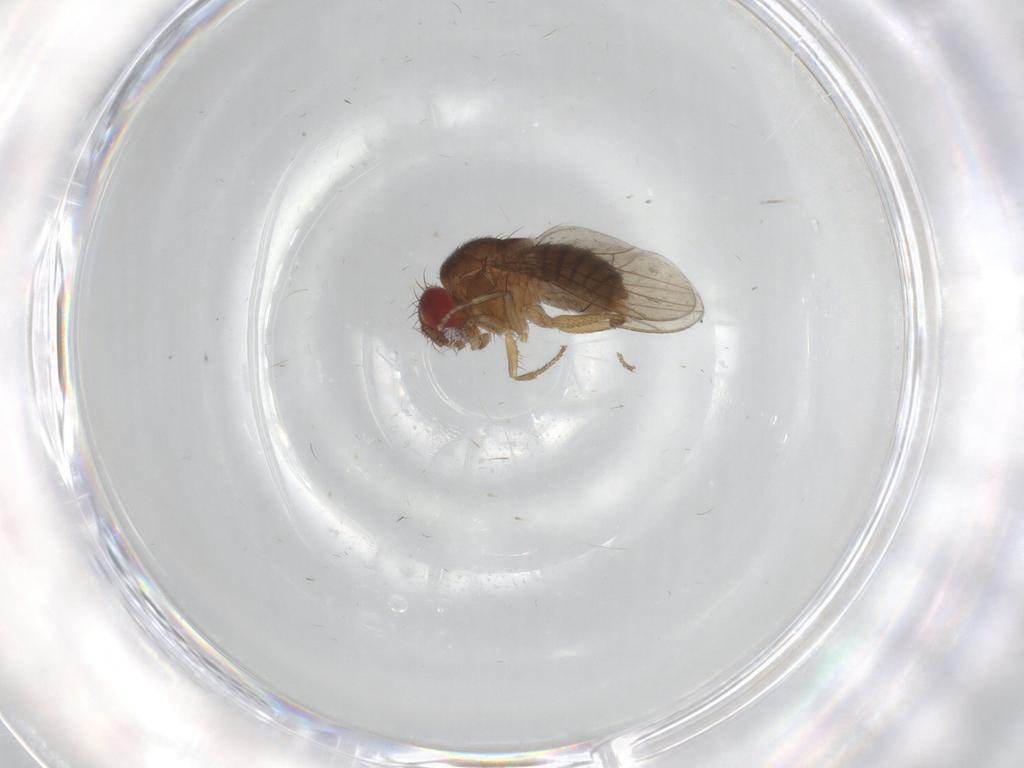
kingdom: Animalia
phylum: Arthropoda
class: Insecta
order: Diptera
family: Drosophilidae
